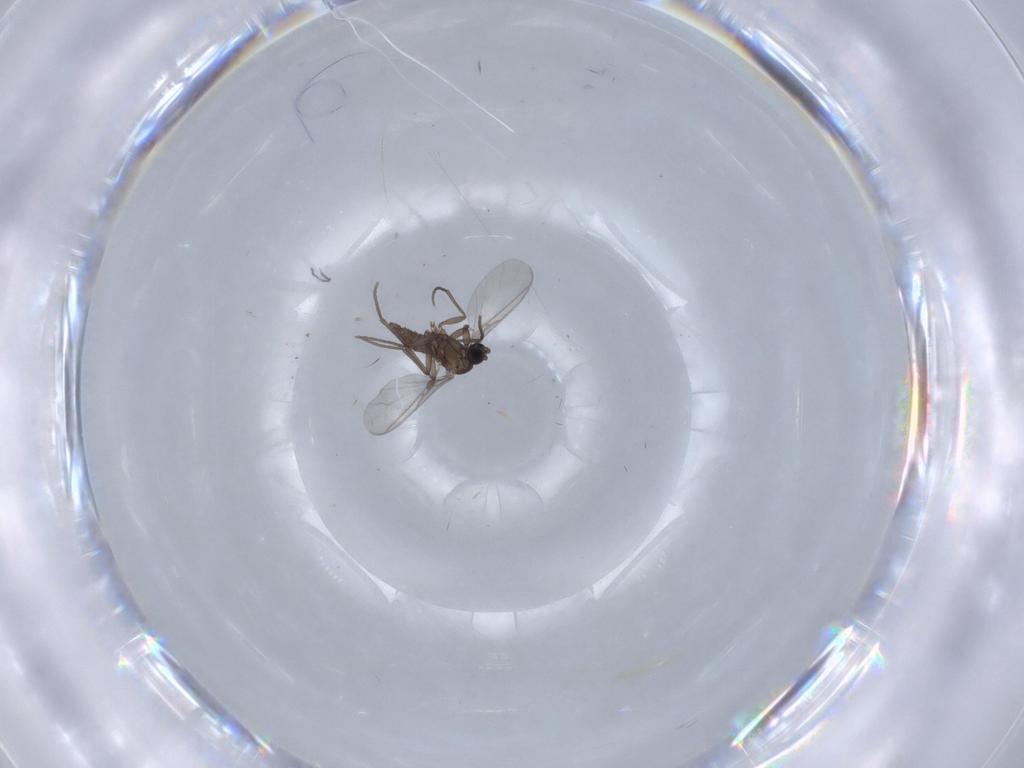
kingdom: Animalia
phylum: Arthropoda
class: Insecta
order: Diptera
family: Sciaridae
